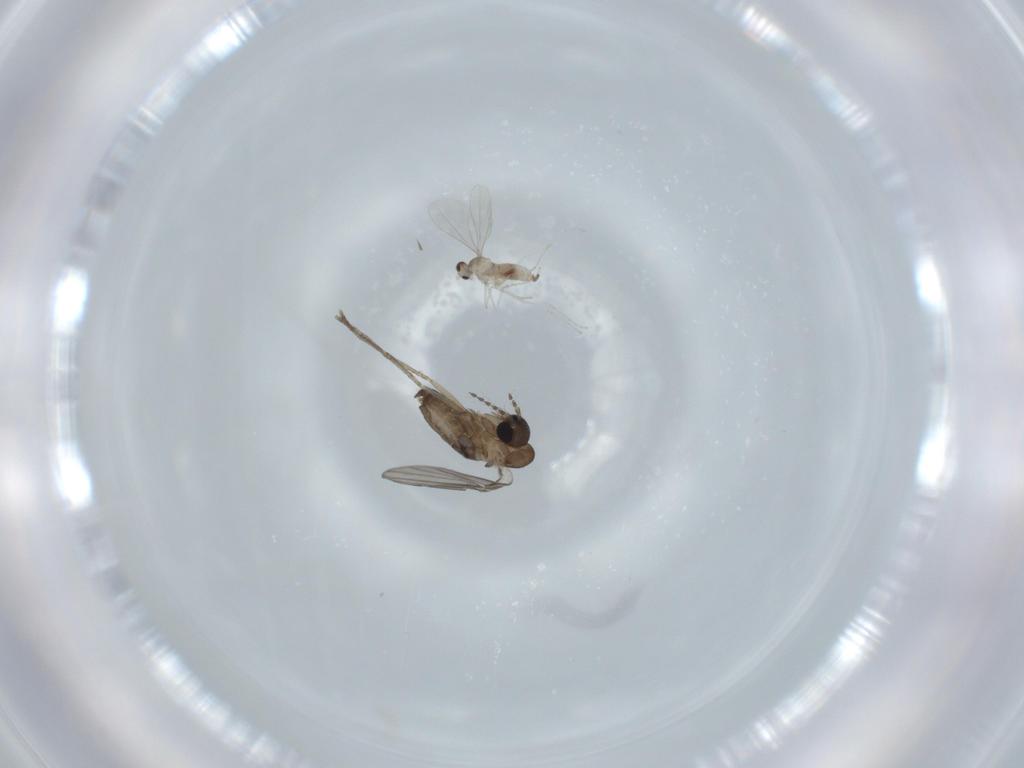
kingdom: Animalia
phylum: Arthropoda
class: Insecta
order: Diptera
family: Cecidomyiidae
